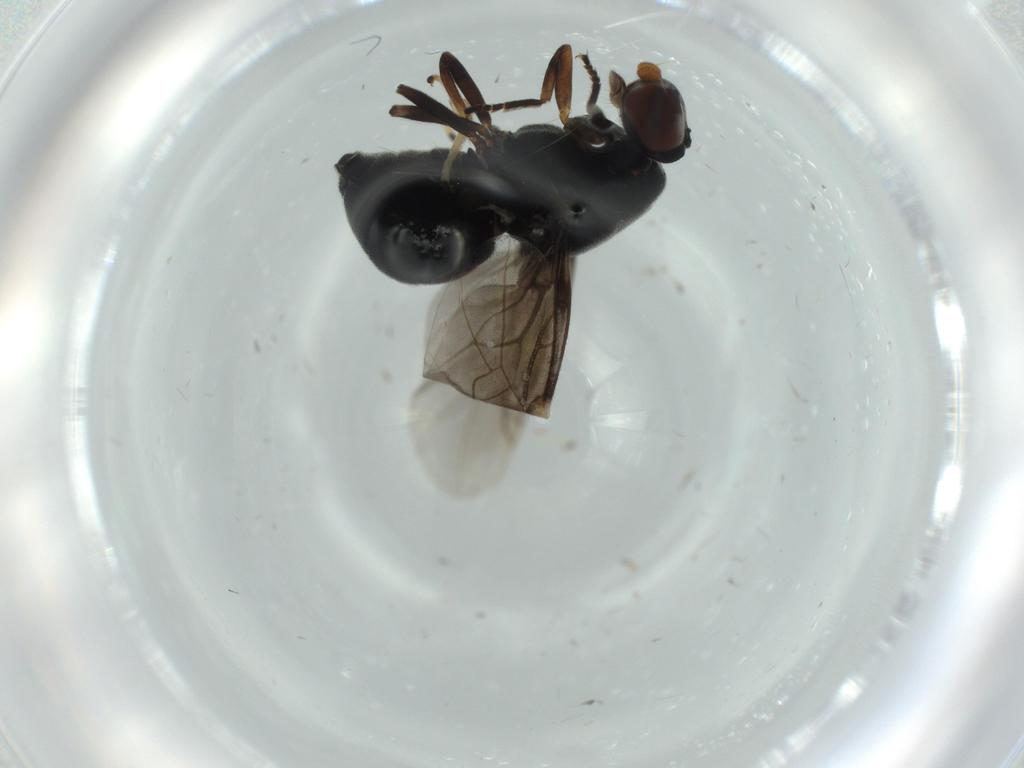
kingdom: Animalia
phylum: Arthropoda
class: Insecta
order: Diptera
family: Stratiomyidae
